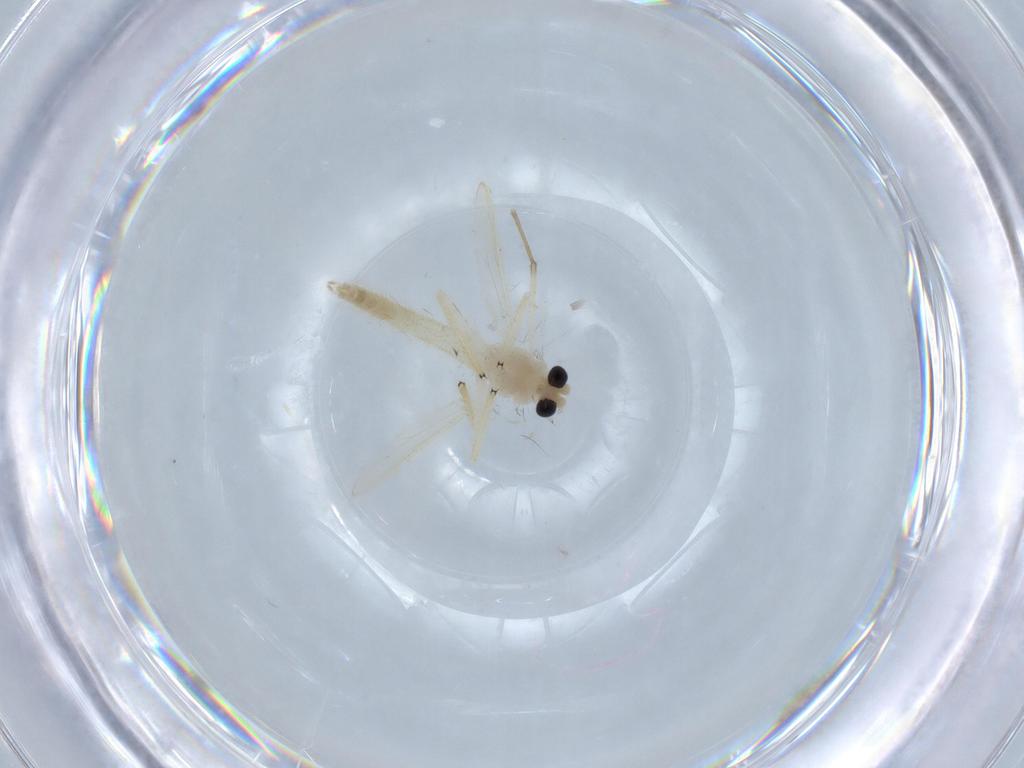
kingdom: Animalia
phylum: Arthropoda
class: Insecta
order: Diptera
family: Chironomidae
